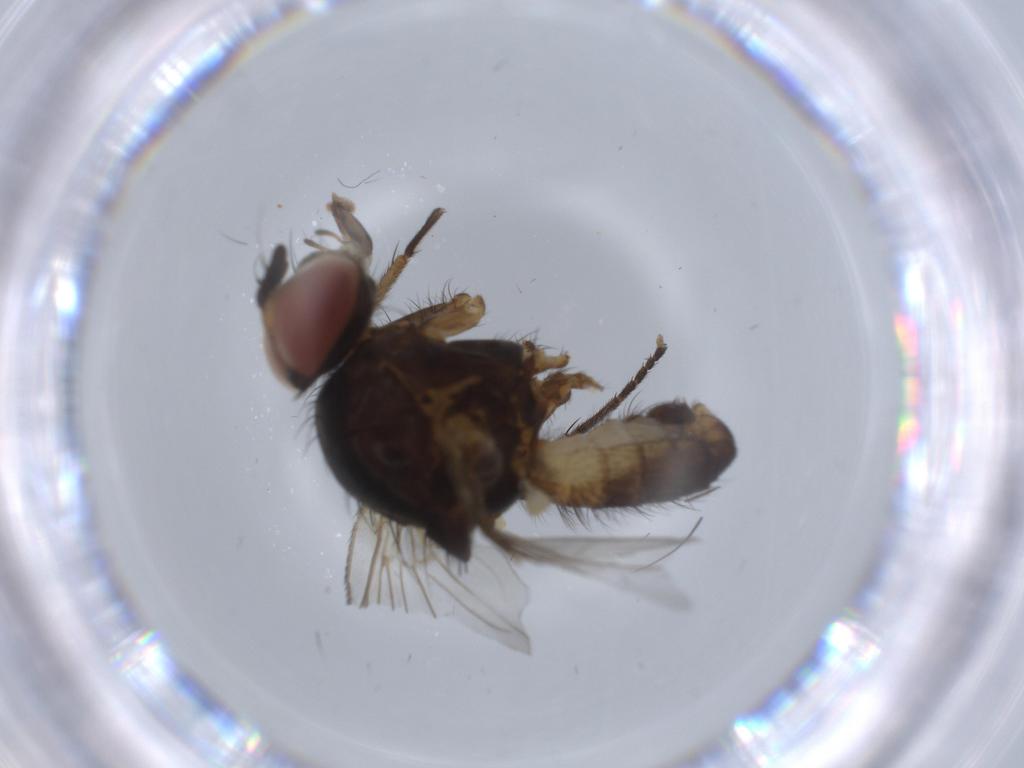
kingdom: Animalia
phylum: Arthropoda
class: Insecta
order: Diptera
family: Anthomyiidae
